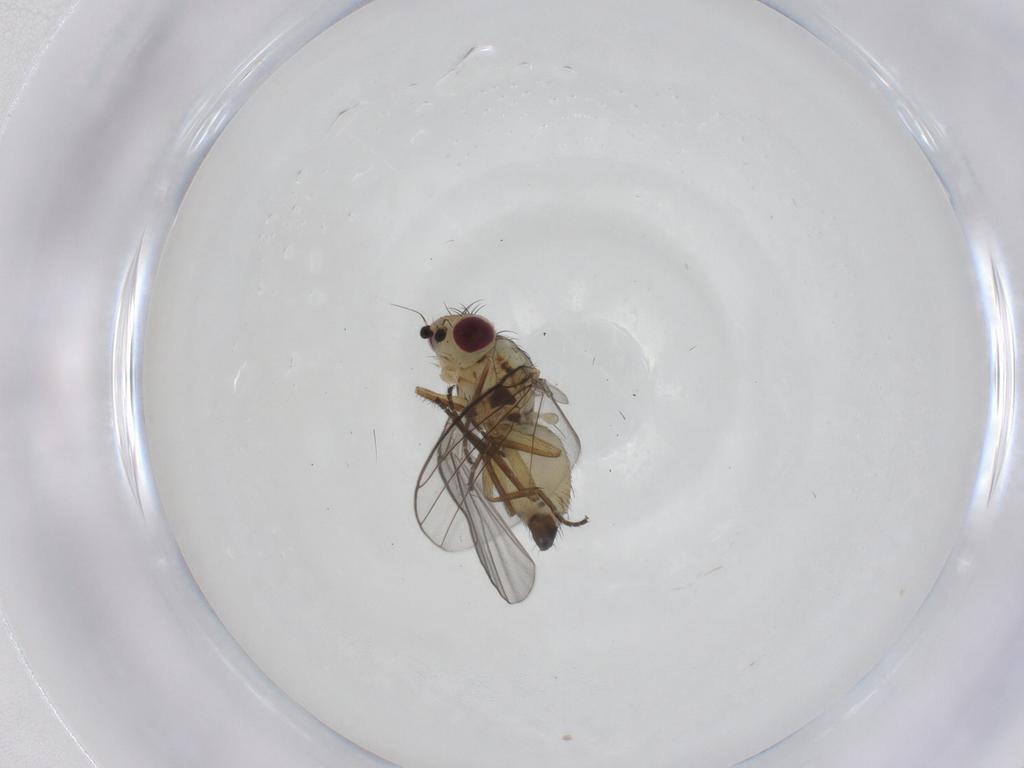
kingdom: Animalia
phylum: Arthropoda
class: Insecta
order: Diptera
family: Agromyzidae
